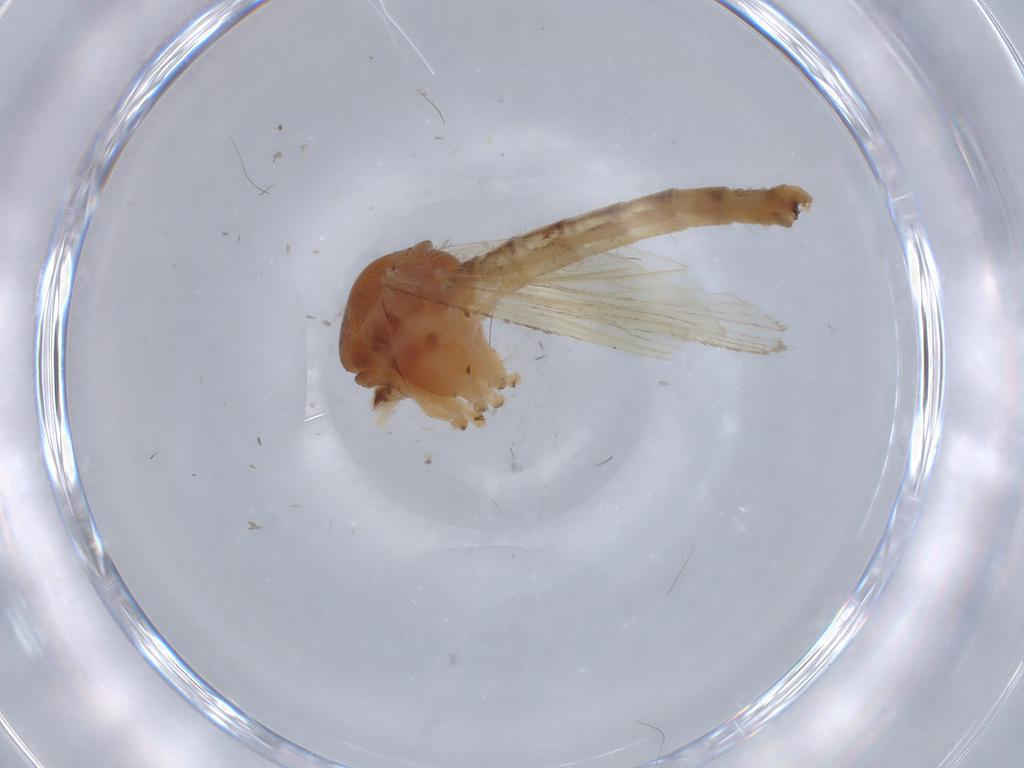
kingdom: Animalia
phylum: Arthropoda
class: Insecta
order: Diptera
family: Culicidae
